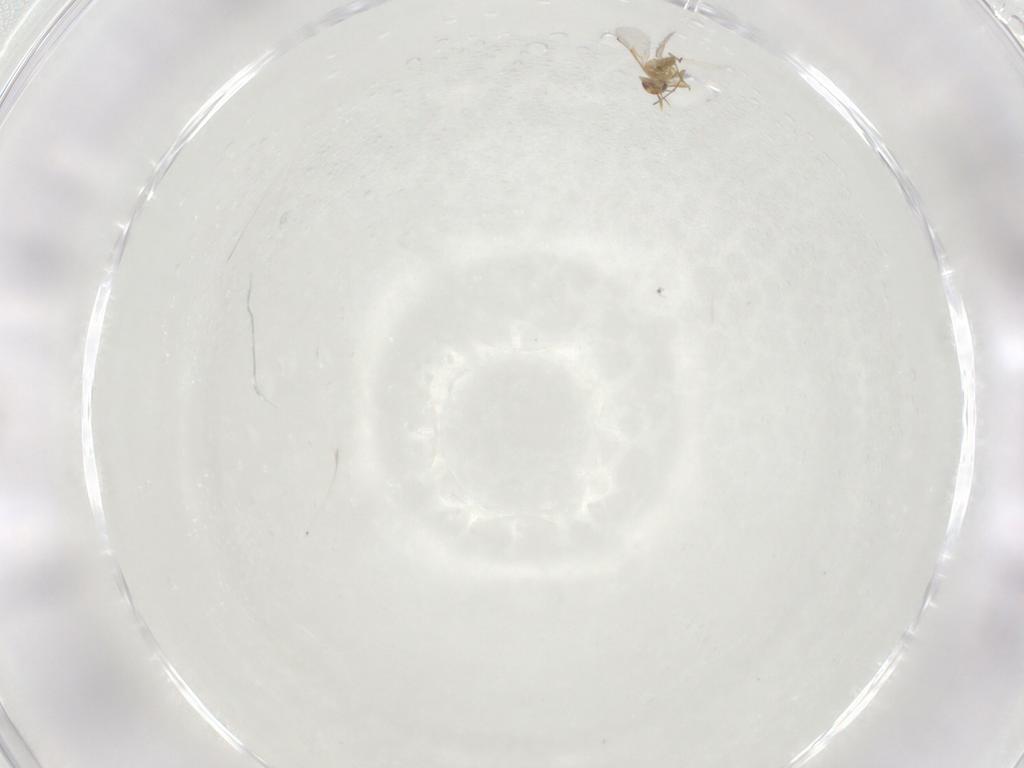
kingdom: Animalia
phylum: Arthropoda
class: Insecta
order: Hymenoptera
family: Aphelinidae
